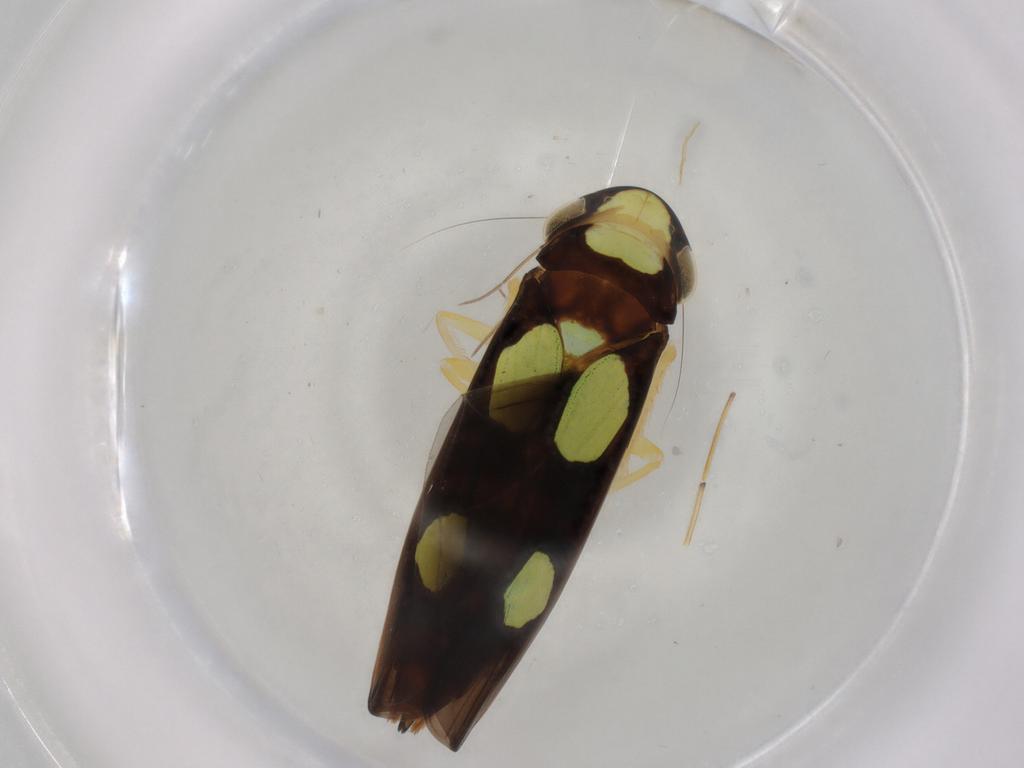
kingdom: Animalia
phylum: Arthropoda
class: Insecta
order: Hemiptera
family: Cicadellidae
